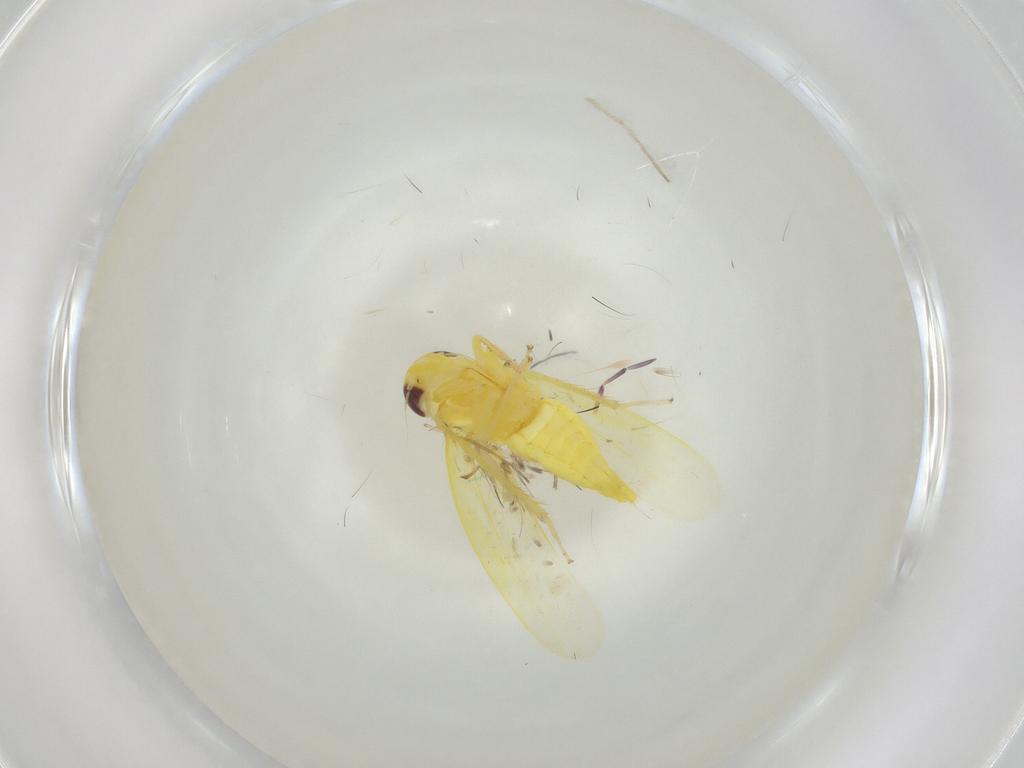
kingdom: Animalia
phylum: Arthropoda
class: Insecta
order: Hemiptera
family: Cicadellidae
